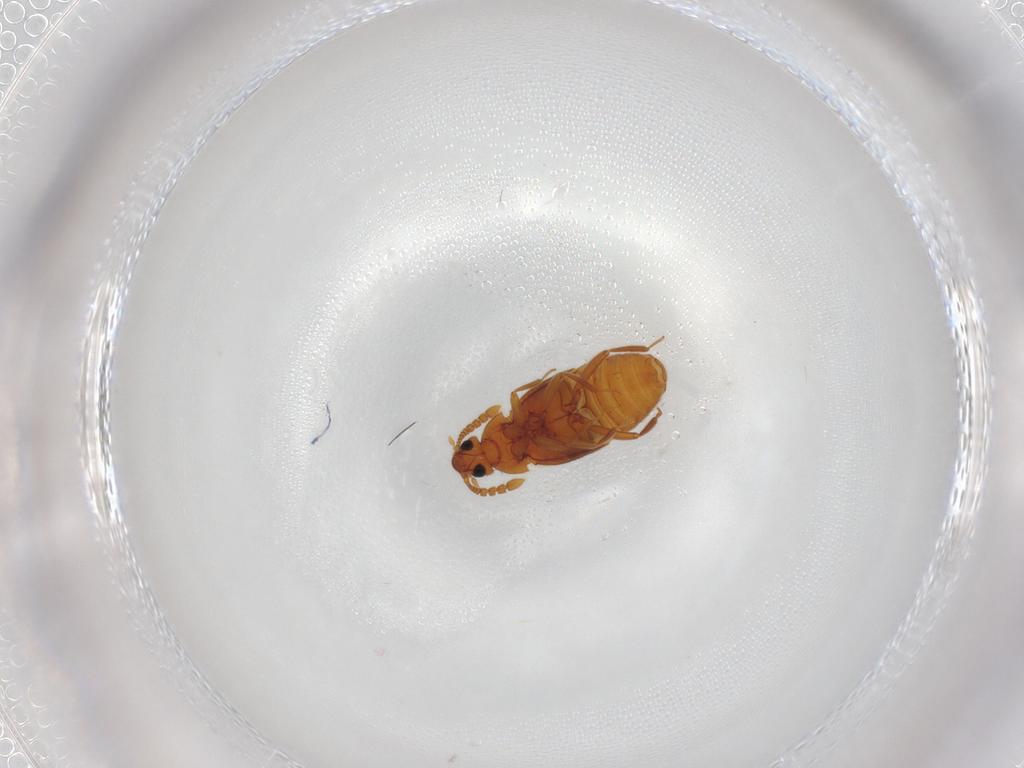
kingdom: Animalia
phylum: Arthropoda
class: Insecta
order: Coleoptera
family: Staphylinidae
